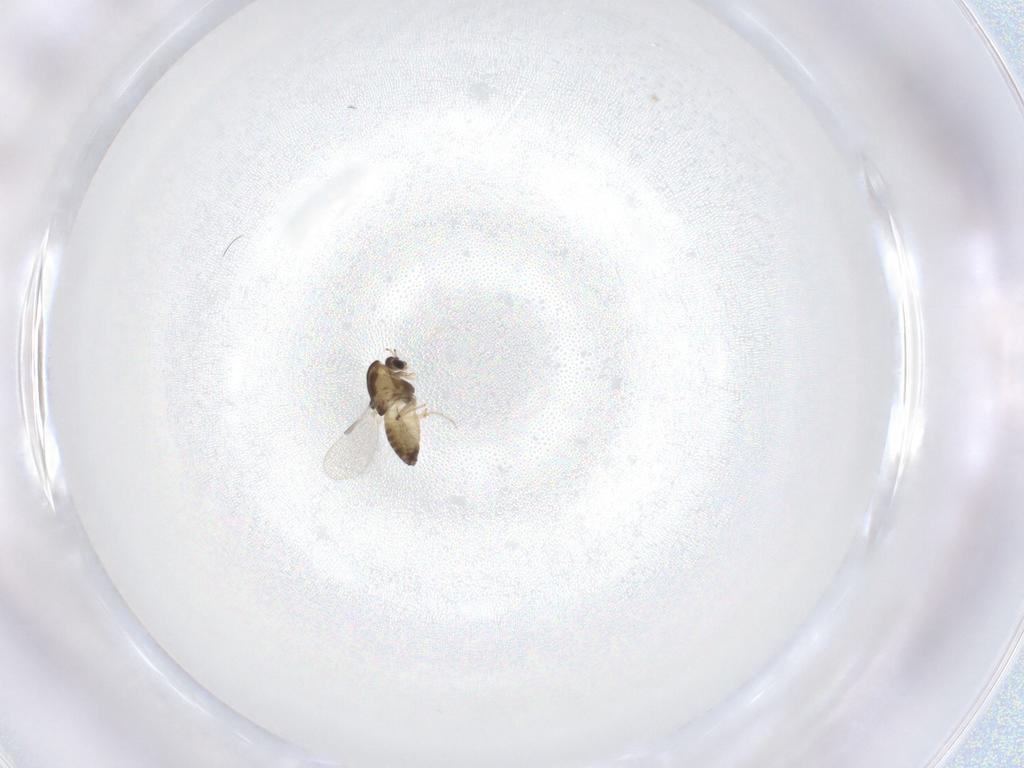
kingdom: Animalia
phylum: Arthropoda
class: Insecta
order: Diptera
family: Chironomidae
